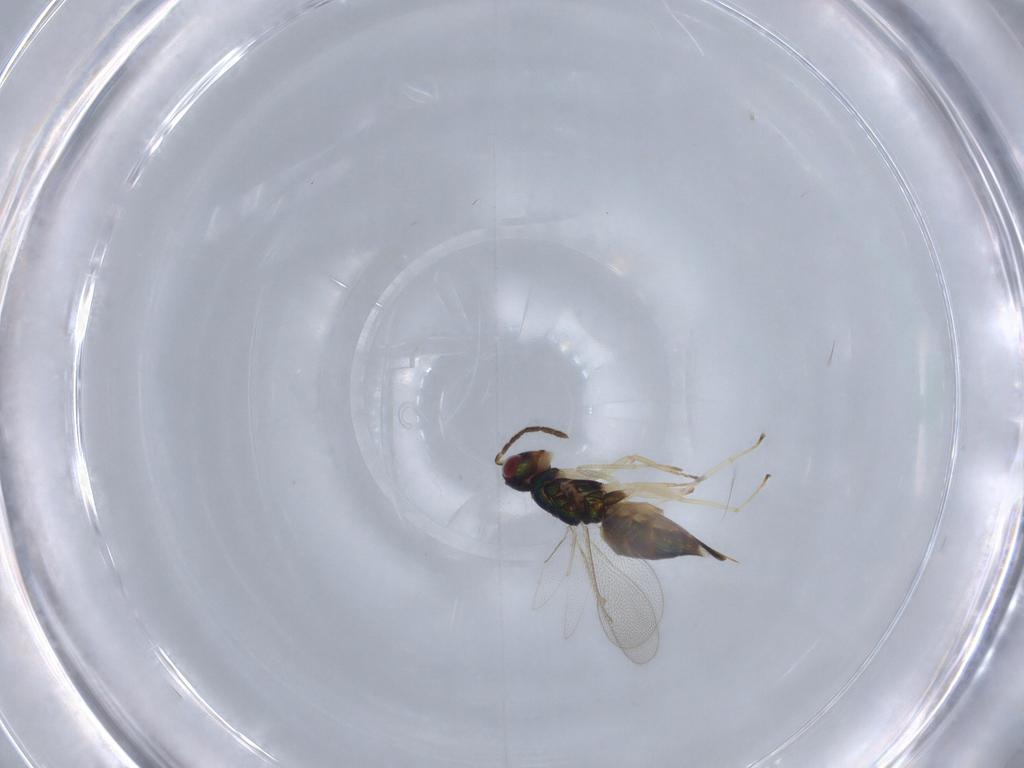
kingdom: Animalia
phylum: Arthropoda
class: Insecta
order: Hymenoptera
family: Eulophidae
